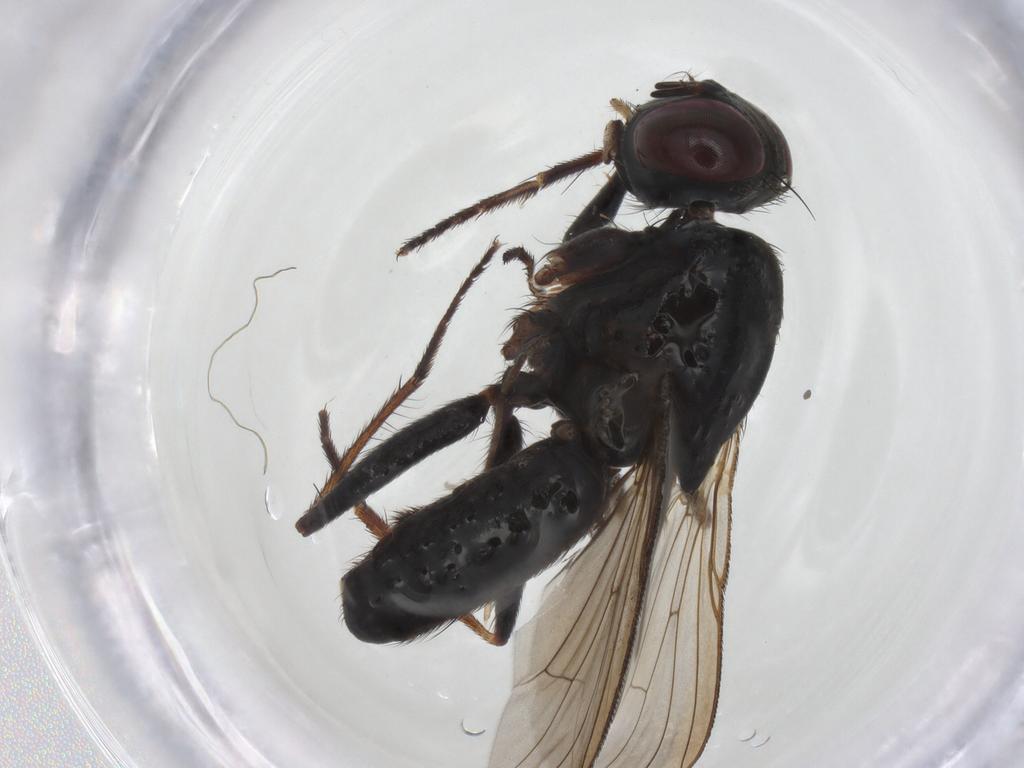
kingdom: Animalia
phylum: Arthropoda
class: Insecta
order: Diptera
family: Muscidae
